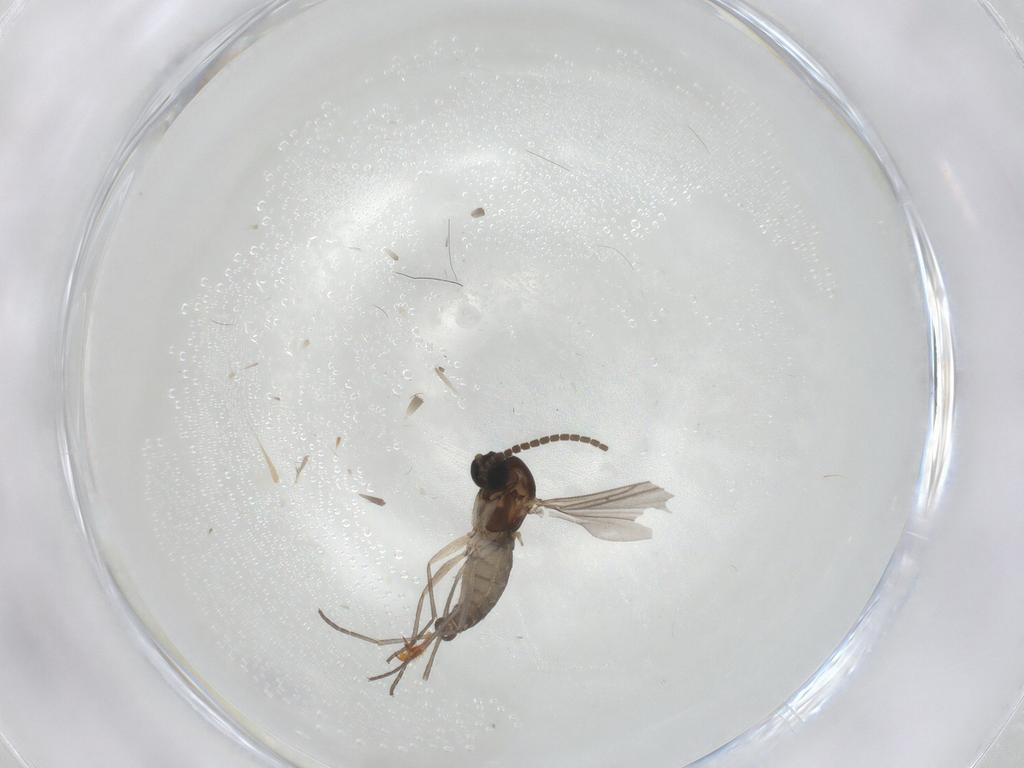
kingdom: Animalia
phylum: Arthropoda
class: Insecta
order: Diptera
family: Sciaridae
